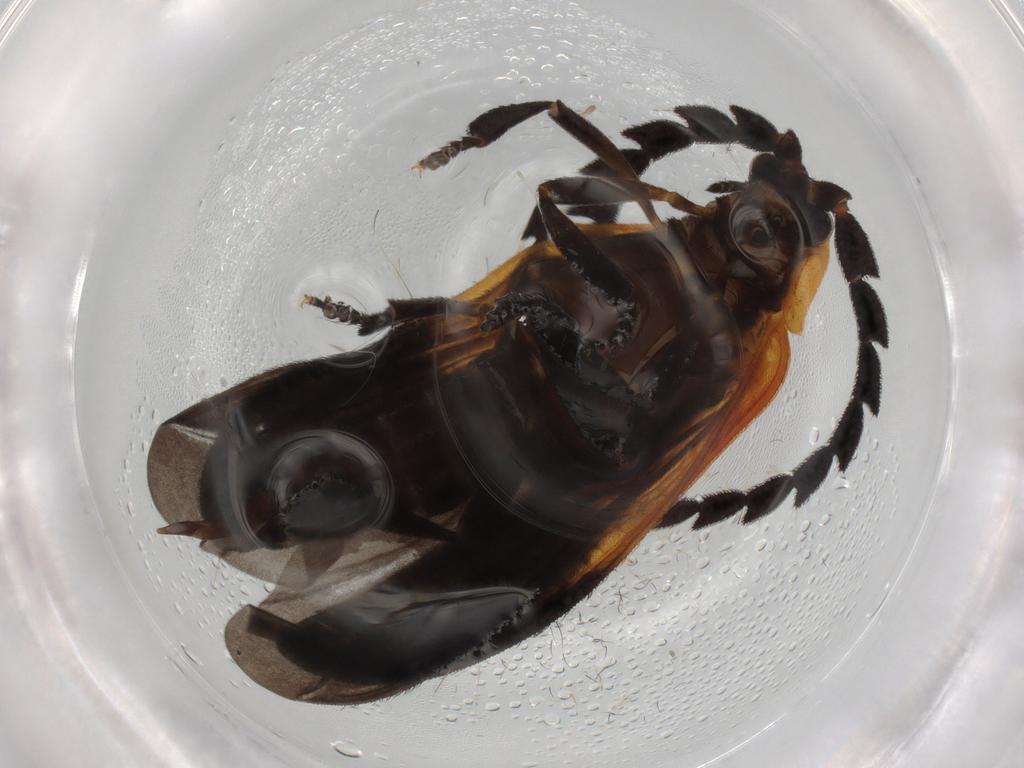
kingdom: Animalia
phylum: Arthropoda
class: Insecta
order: Coleoptera
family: Lycidae
